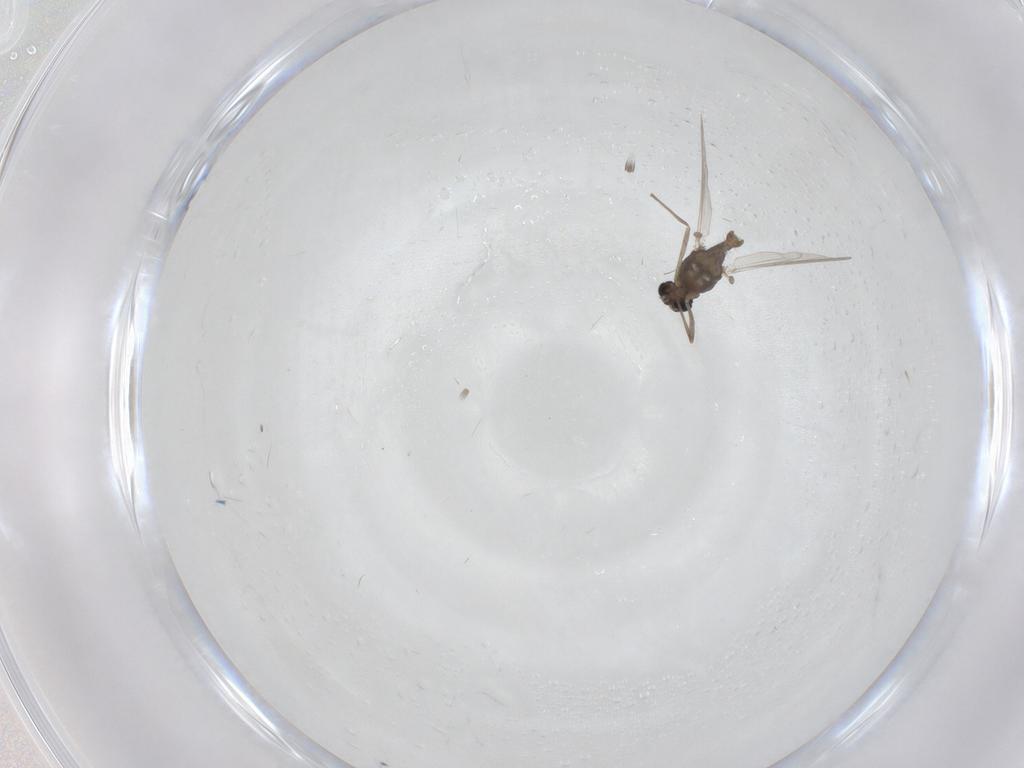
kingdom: Animalia
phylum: Arthropoda
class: Insecta
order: Diptera
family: Chironomidae
